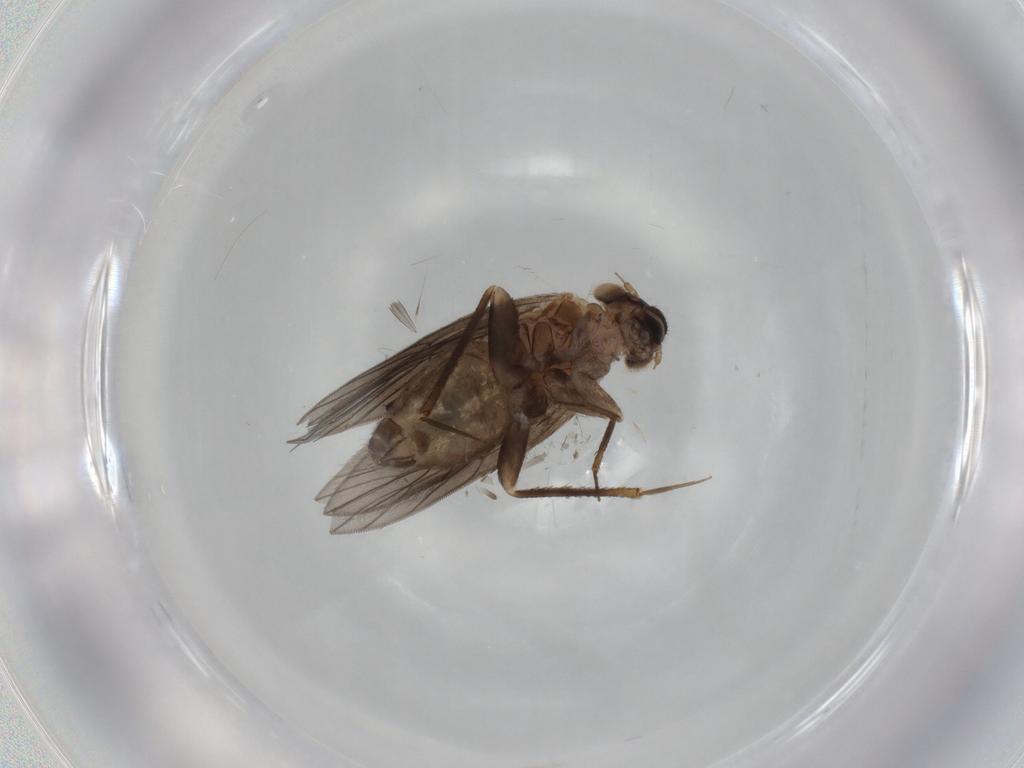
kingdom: Animalia
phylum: Arthropoda
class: Insecta
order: Psocodea
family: Lepidopsocidae
